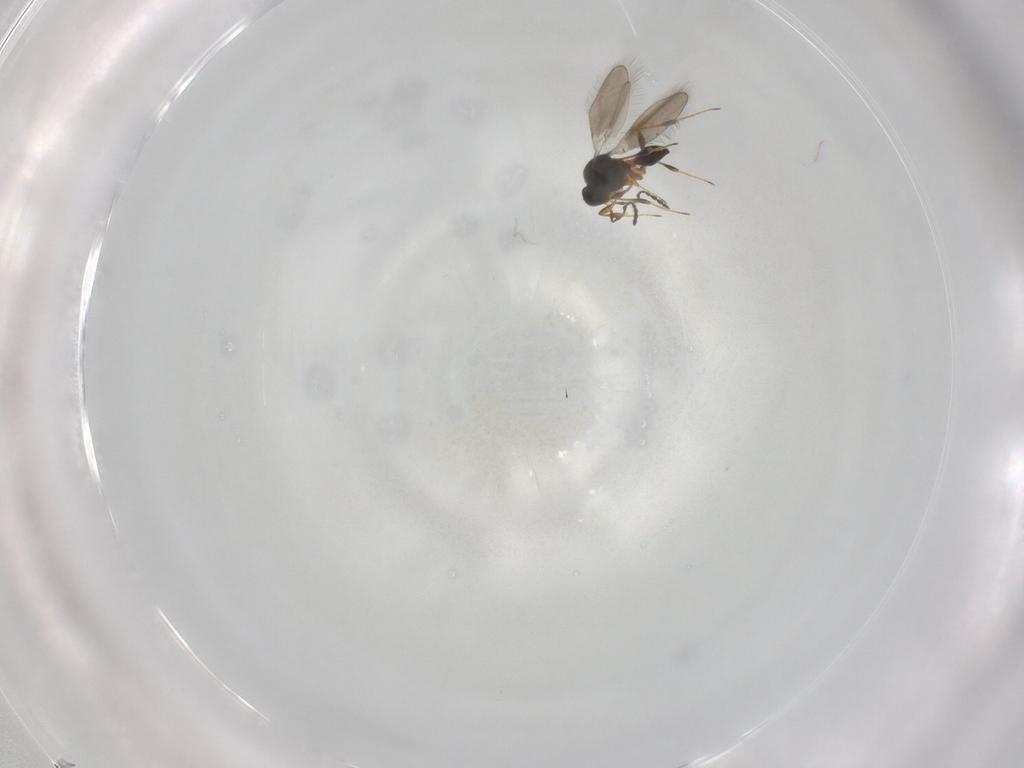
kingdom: Animalia
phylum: Arthropoda
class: Insecta
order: Hymenoptera
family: Platygastridae
